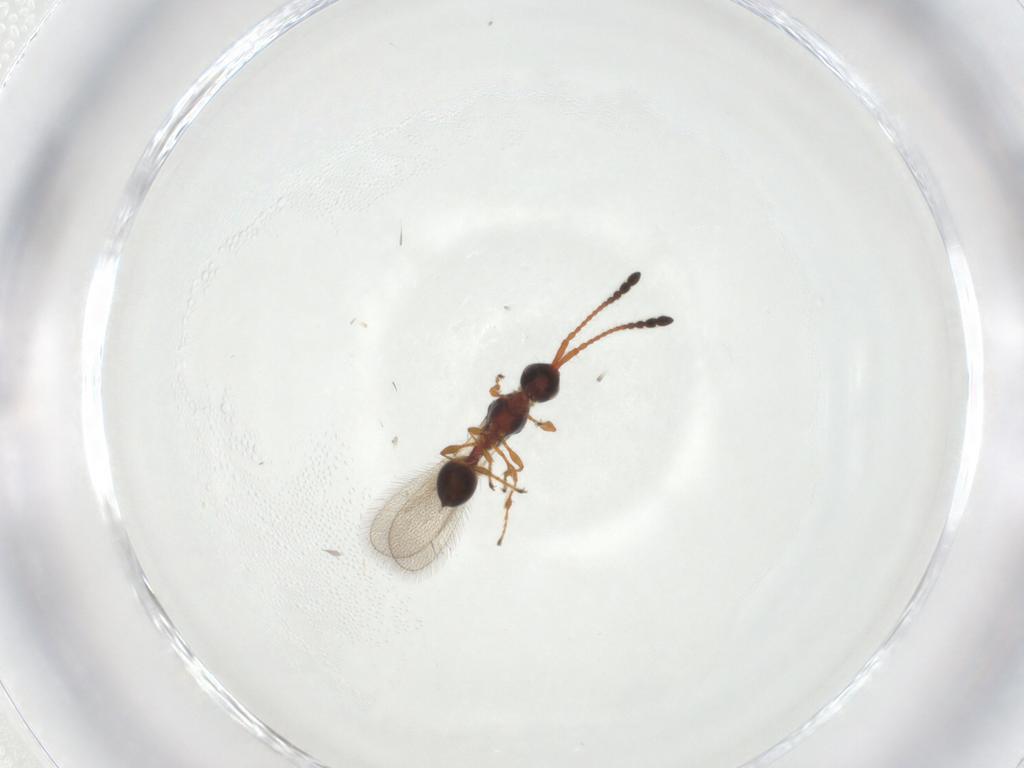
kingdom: Animalia
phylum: Arthropoda
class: Insecta
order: Hymenoptera
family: Diapriidae
